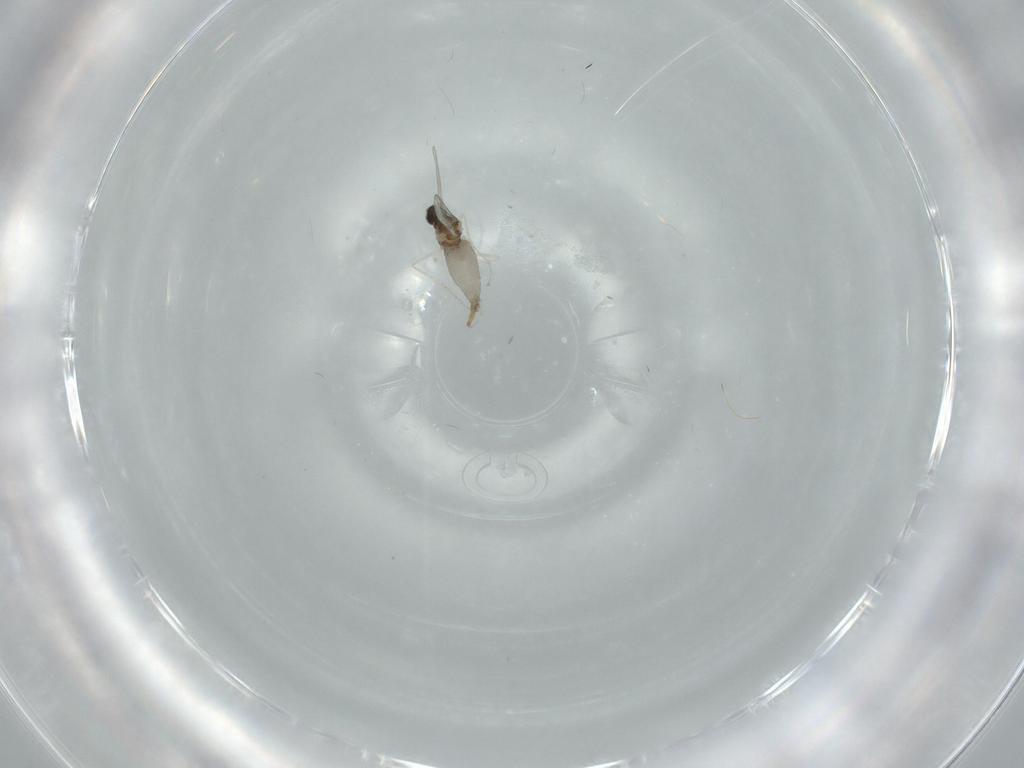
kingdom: Animalia
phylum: Arthropoda
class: Insecta
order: Diptera
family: Cecidomyiidae
